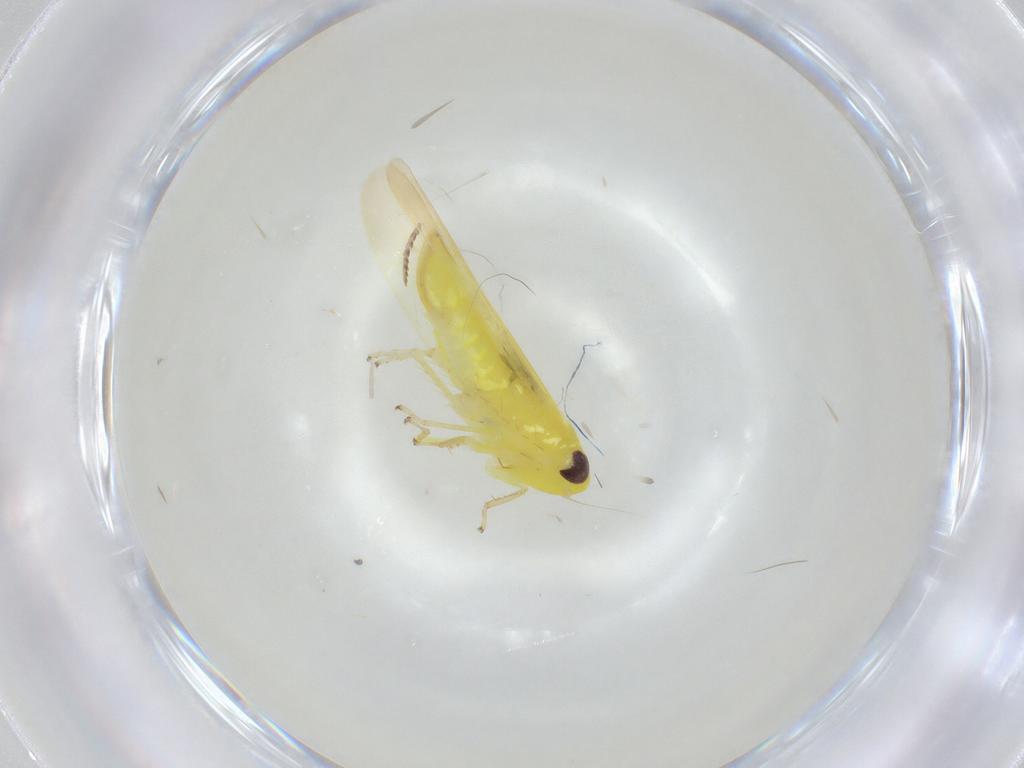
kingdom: Animalia
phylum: Arthropoda
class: Insecta
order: Hemiptera
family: Cicadellidae
